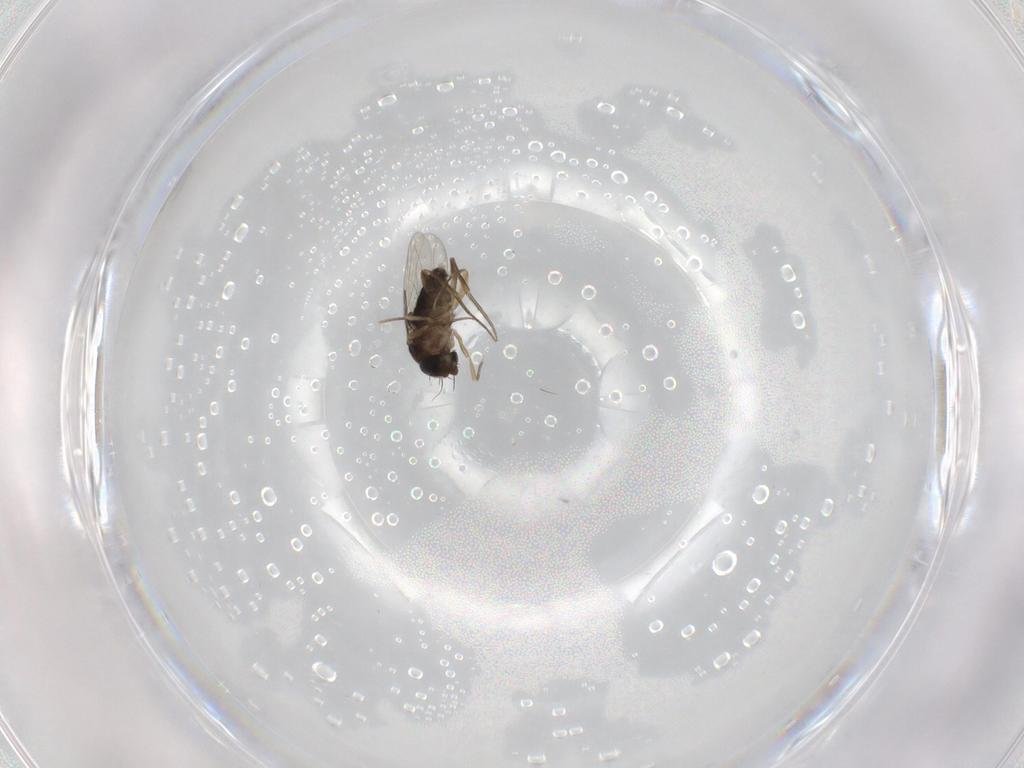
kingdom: Animalia
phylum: Arthropoda
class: Insecta
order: Diptera
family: Phoridae
